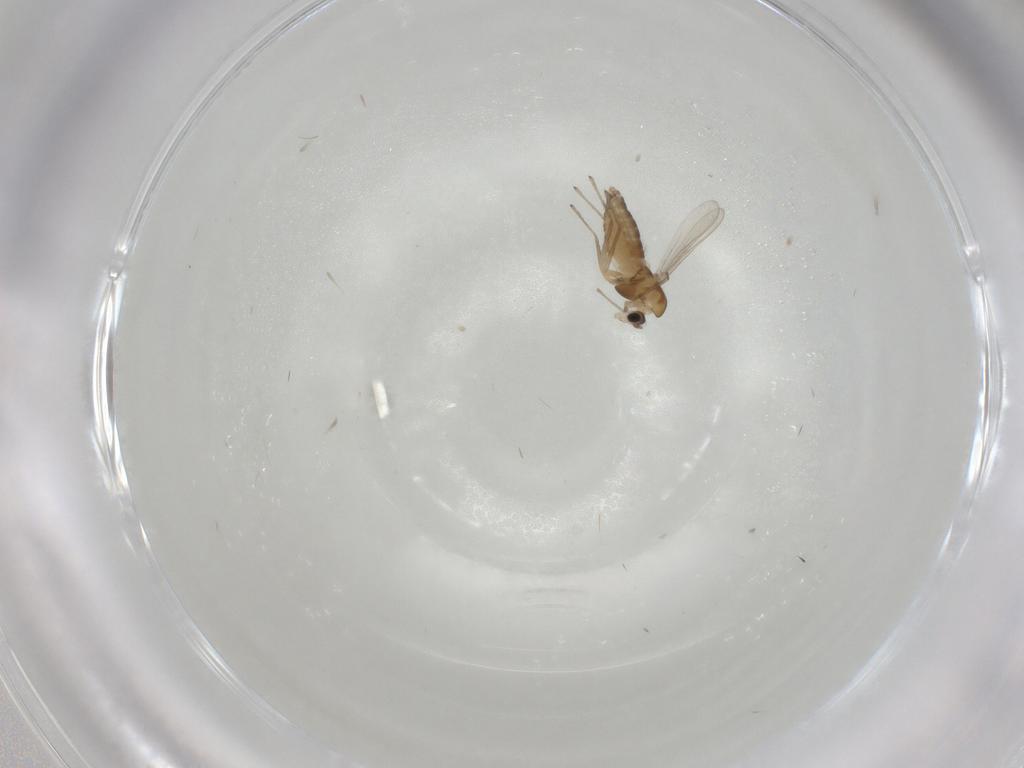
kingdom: Animalia
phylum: Arthropoda
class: Insecta
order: Diptera
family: Chironomidae
